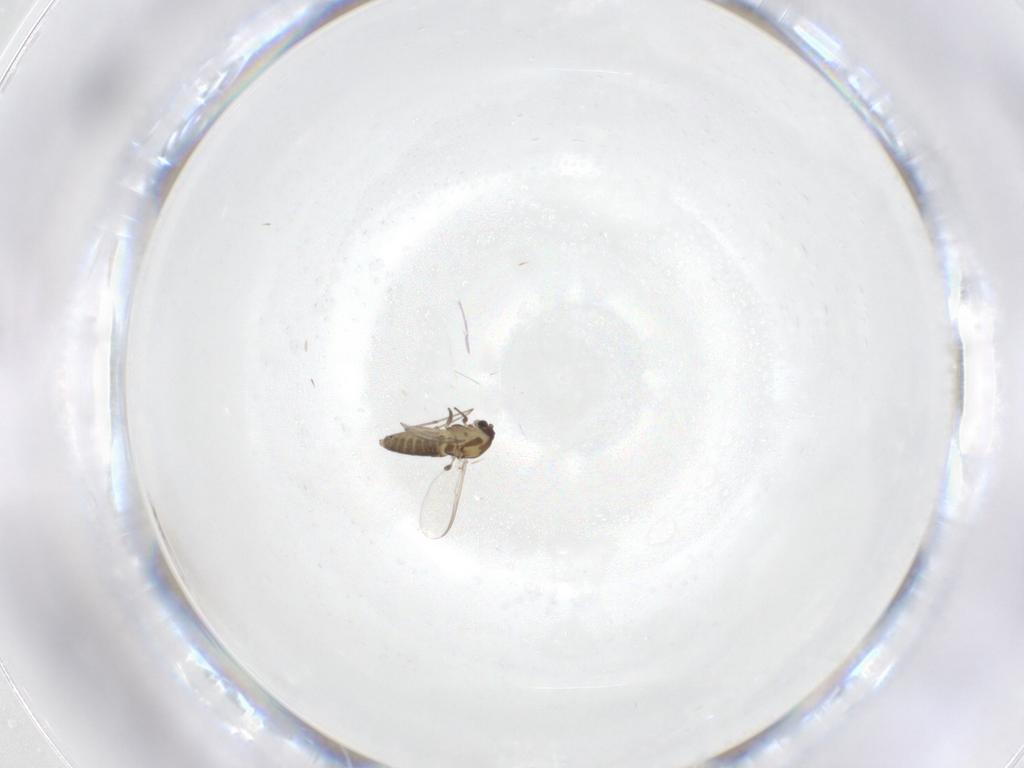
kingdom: Animalia
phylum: Arthropoda
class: Insecta
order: Diptera
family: Chironomidae
